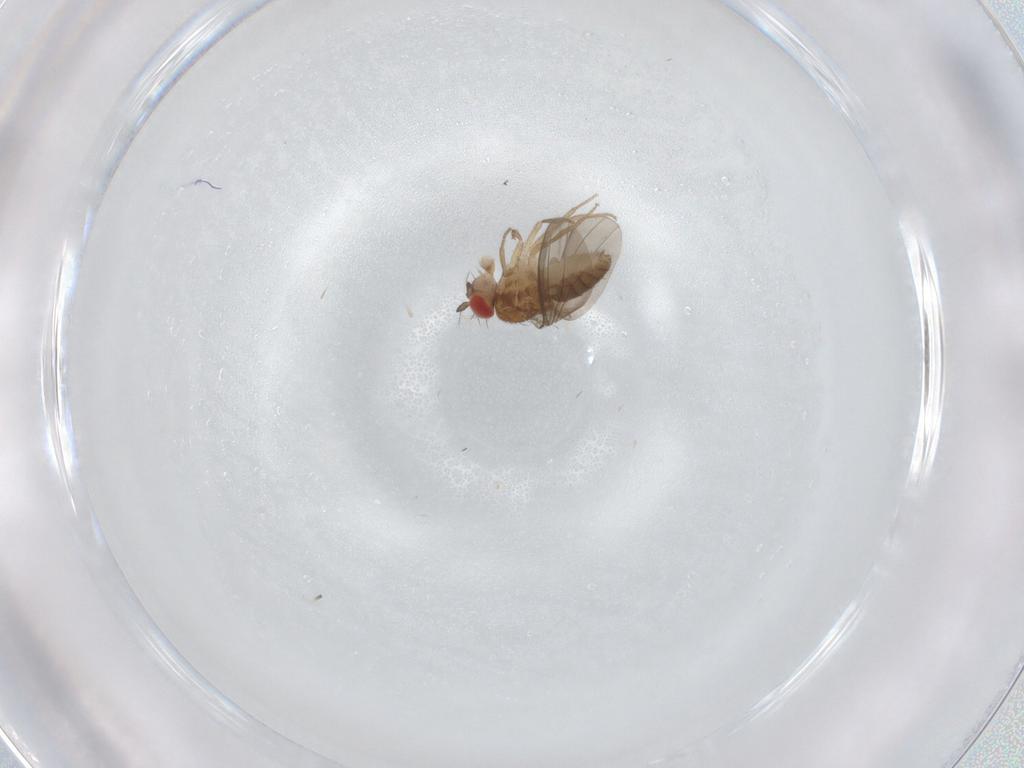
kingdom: Animalia
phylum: Arthropoda
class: Insecta
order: Diptera
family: Drosophilidae
